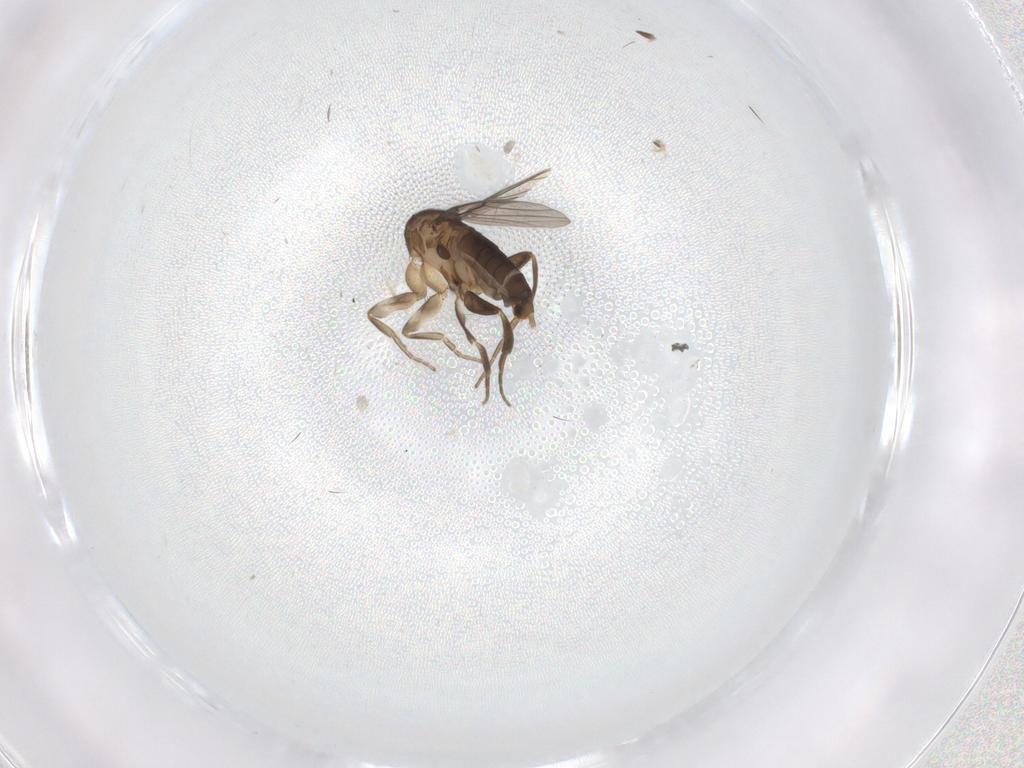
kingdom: Animalia
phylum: Arthropoda
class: Insecta
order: Diptera
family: Phoridae
